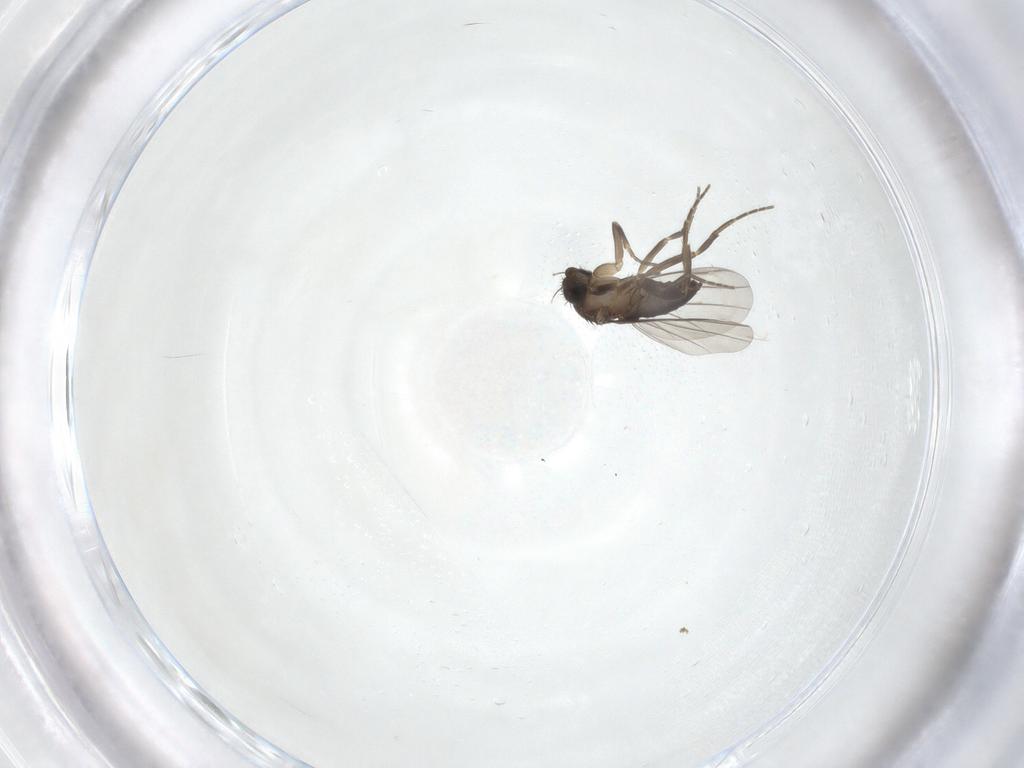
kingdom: Animalia
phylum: Arthropoda
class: Insecta
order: Diptera
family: Phoridae
